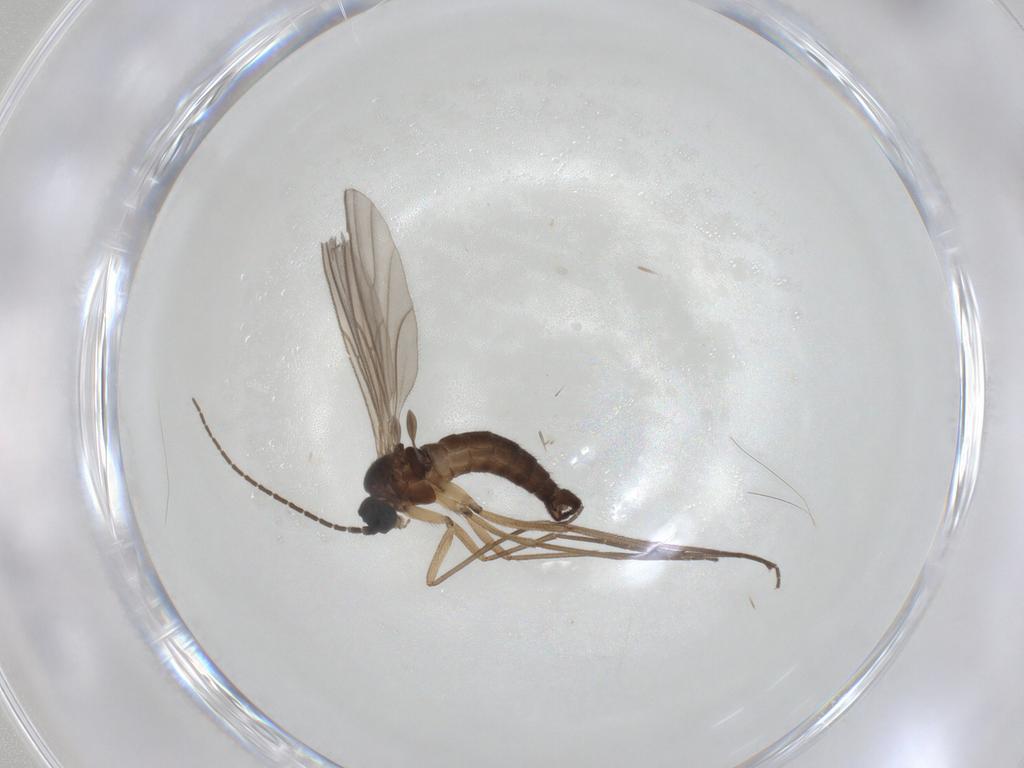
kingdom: Animalia
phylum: Arthropoda
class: Insecta
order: Diptera
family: Sciaridae
